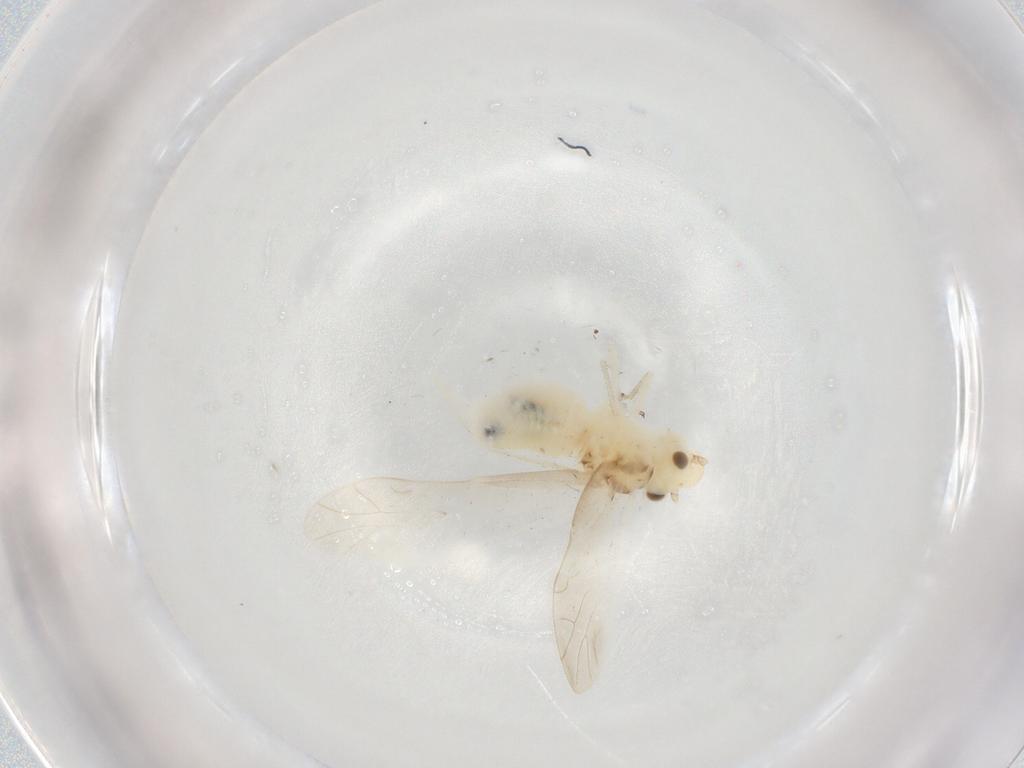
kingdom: Animalia
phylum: Arthropoda
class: Insecta
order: Psocodea
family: Caeciliusidae
